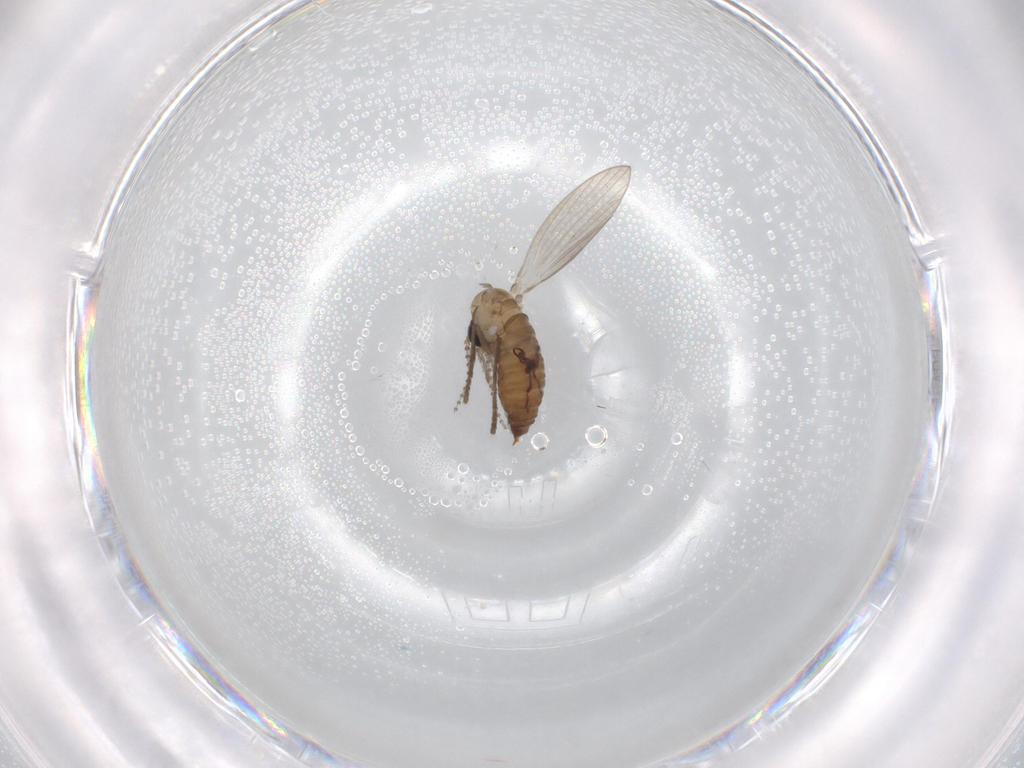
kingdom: Animalia
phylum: Arthropoda
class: Insecta
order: Diptera
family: Psychodidae
